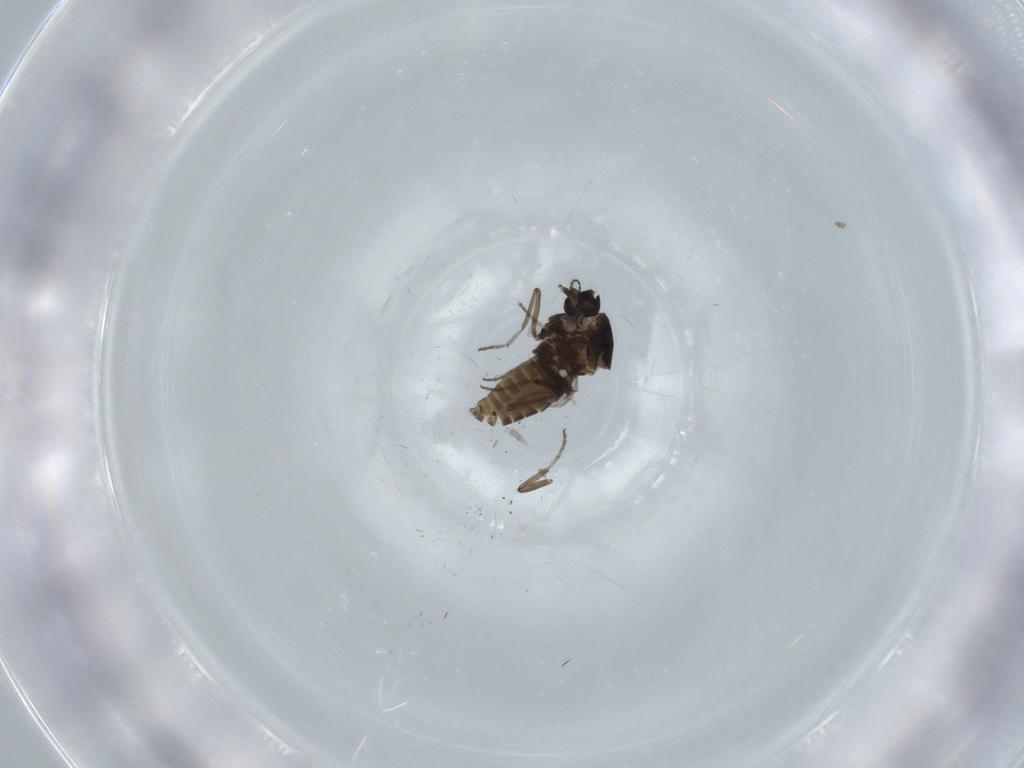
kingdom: Animalia
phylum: Arthropoda
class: Insecta
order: Diptera
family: Ceratopogonidae
